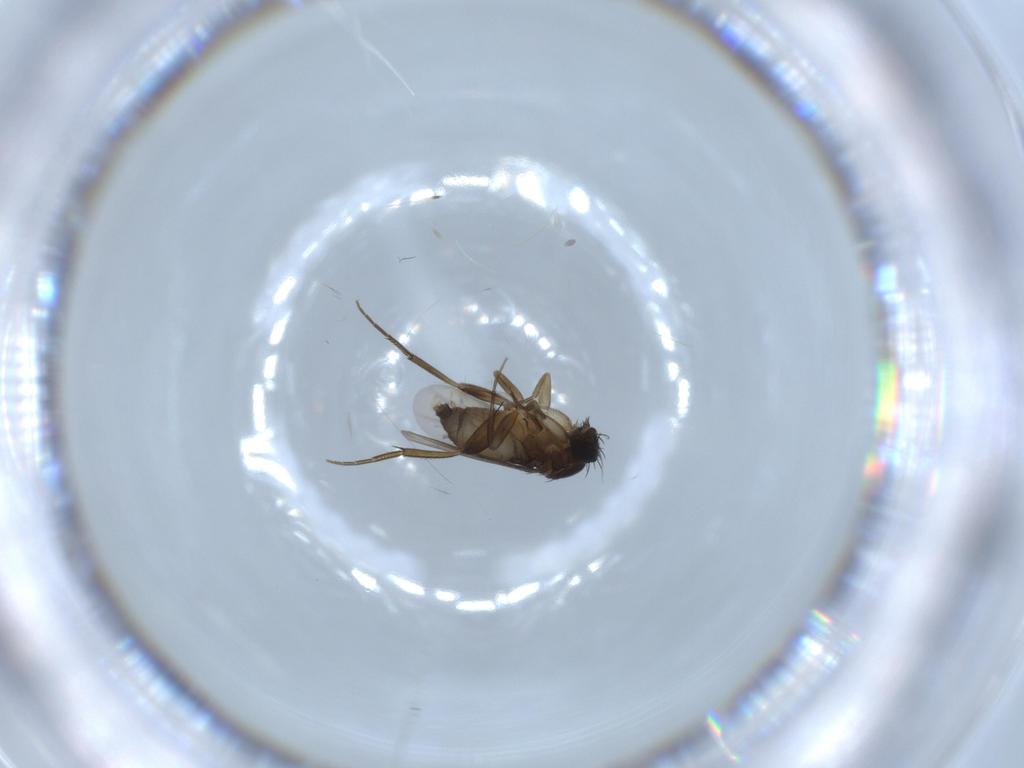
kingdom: Animalia
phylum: Arthropoda
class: Insecta
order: Diptera
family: Phoridae
